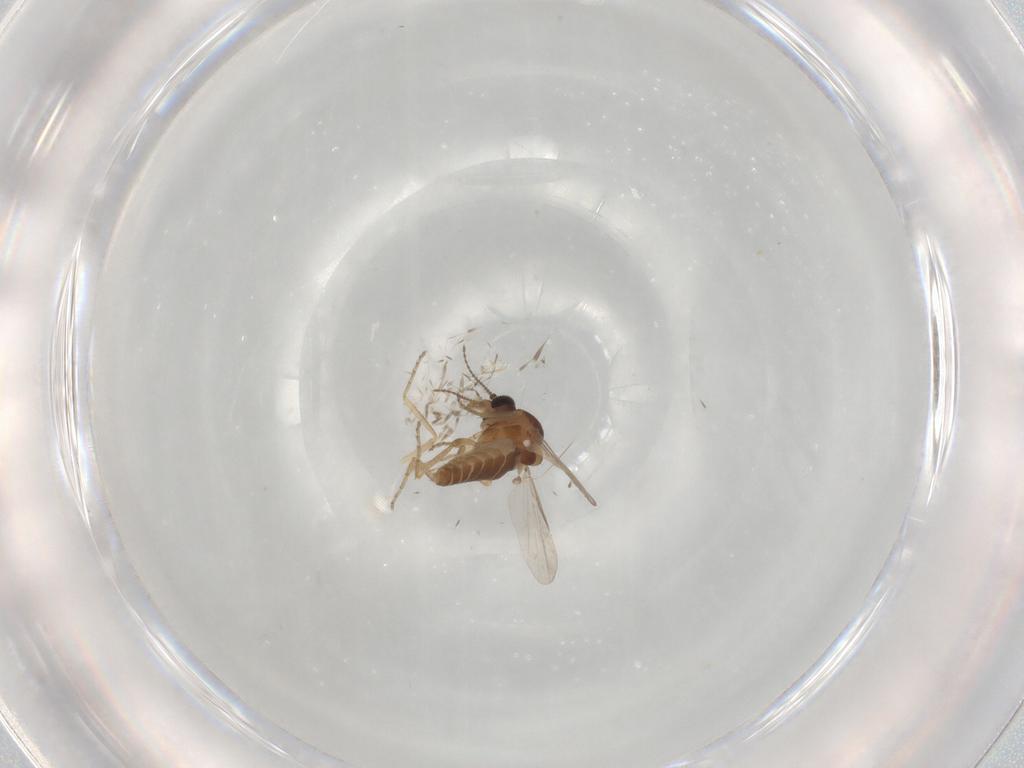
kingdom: Animalia
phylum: Arthropoda
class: Insecta
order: Diptera
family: Ceratopogonidae
